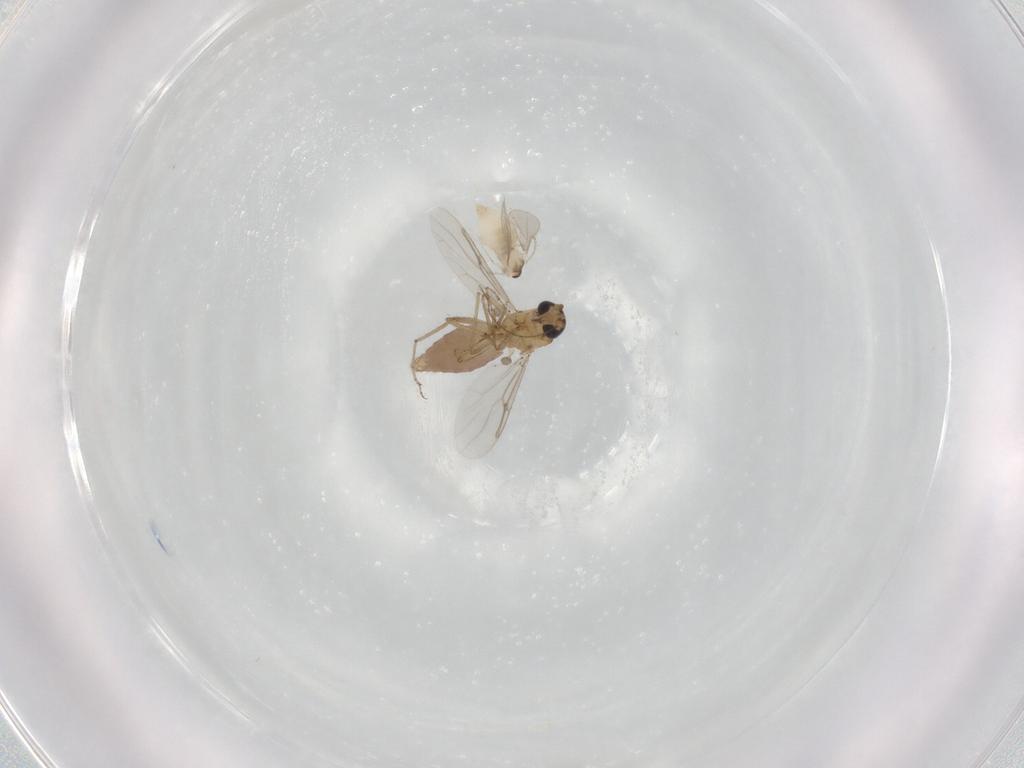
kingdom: Animalia
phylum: Arthropoda
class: Insecta
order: Diptera
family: Cecidomyiidae
